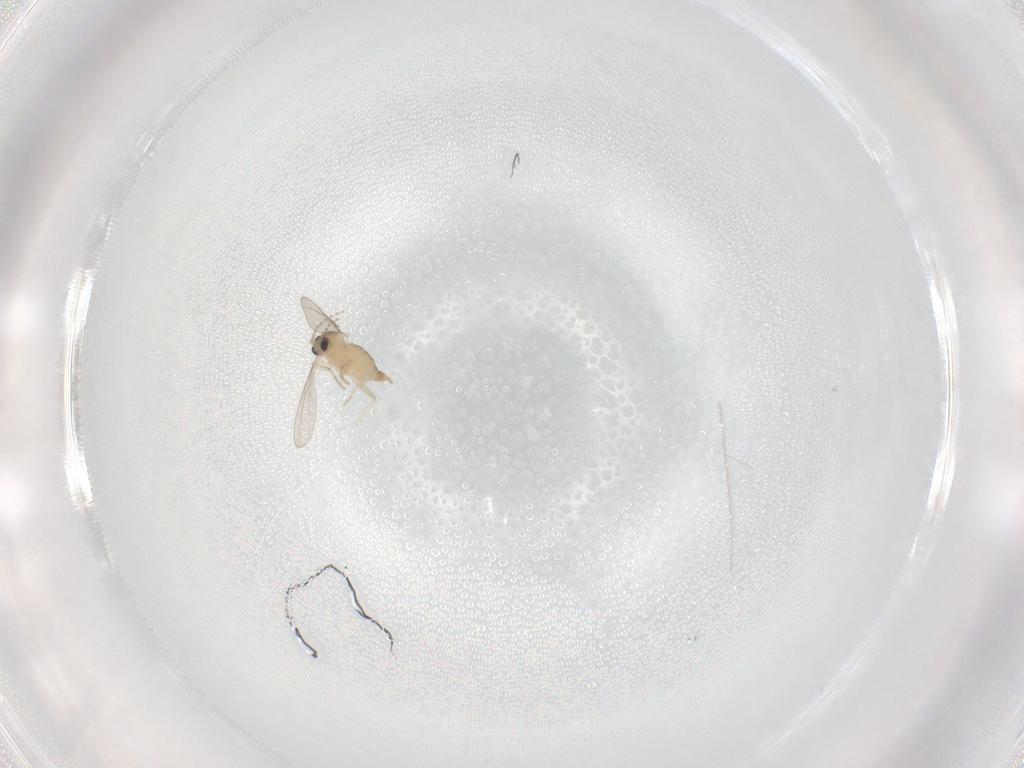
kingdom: Animalia
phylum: Arthropoda
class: Insecta
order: Diptera
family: Cecidomyiidae
